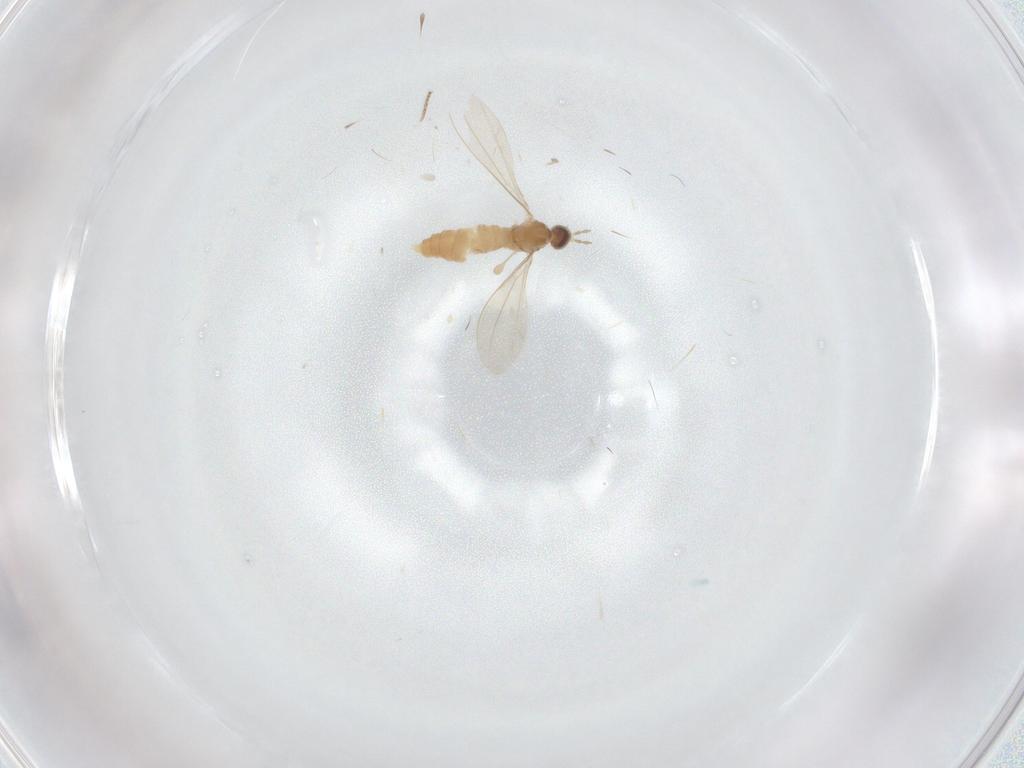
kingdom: Animalia
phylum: Arthropoda
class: Insecta
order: Diptera
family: Cecidomyiidae
